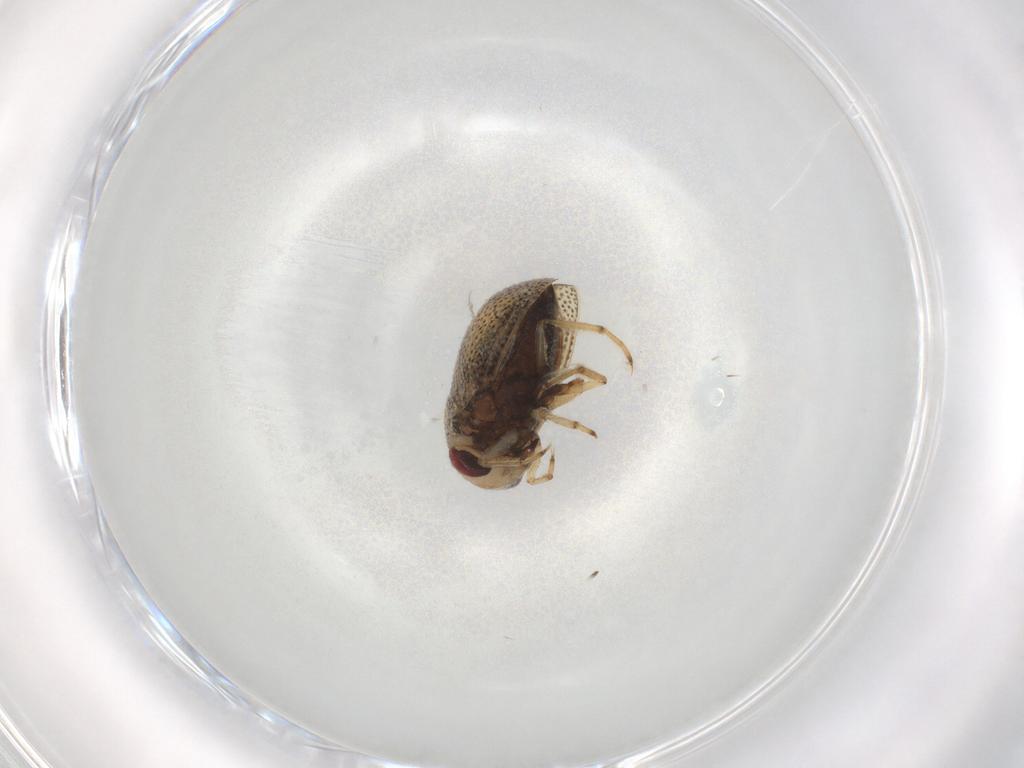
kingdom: Animalia
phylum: Arthropoda
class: Insecta
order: Hemiptera
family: Pleidae
